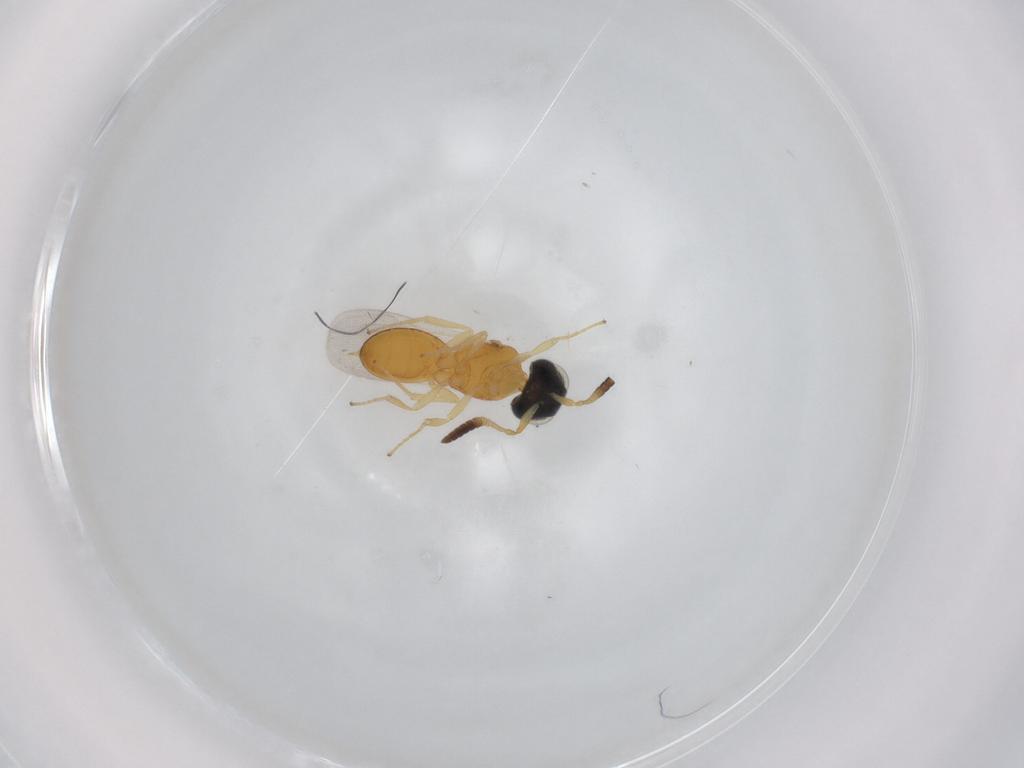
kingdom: Animalia
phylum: Arthropoda
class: Insecta
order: Hymenoptera
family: Scelionidae
